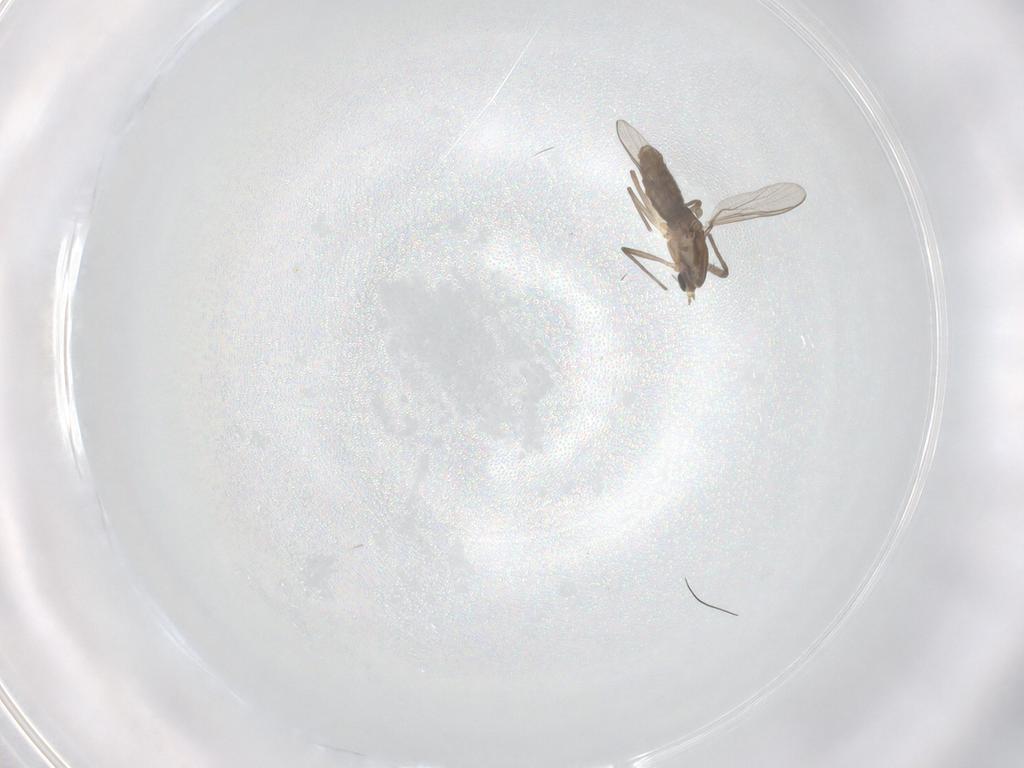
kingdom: Animalia
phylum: Arthropoda
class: Insecta
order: Diptera
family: Chironomidae
